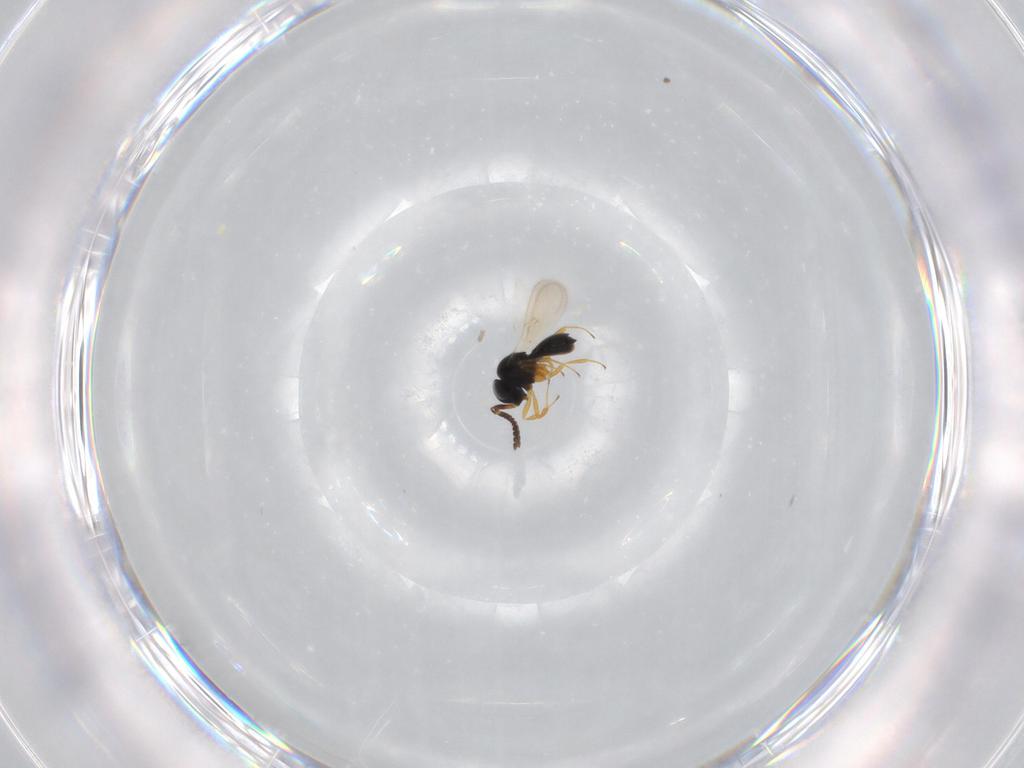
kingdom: Animalia
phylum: Arthropoda
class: Insecta
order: Hymenoptera
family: Scelionidae
